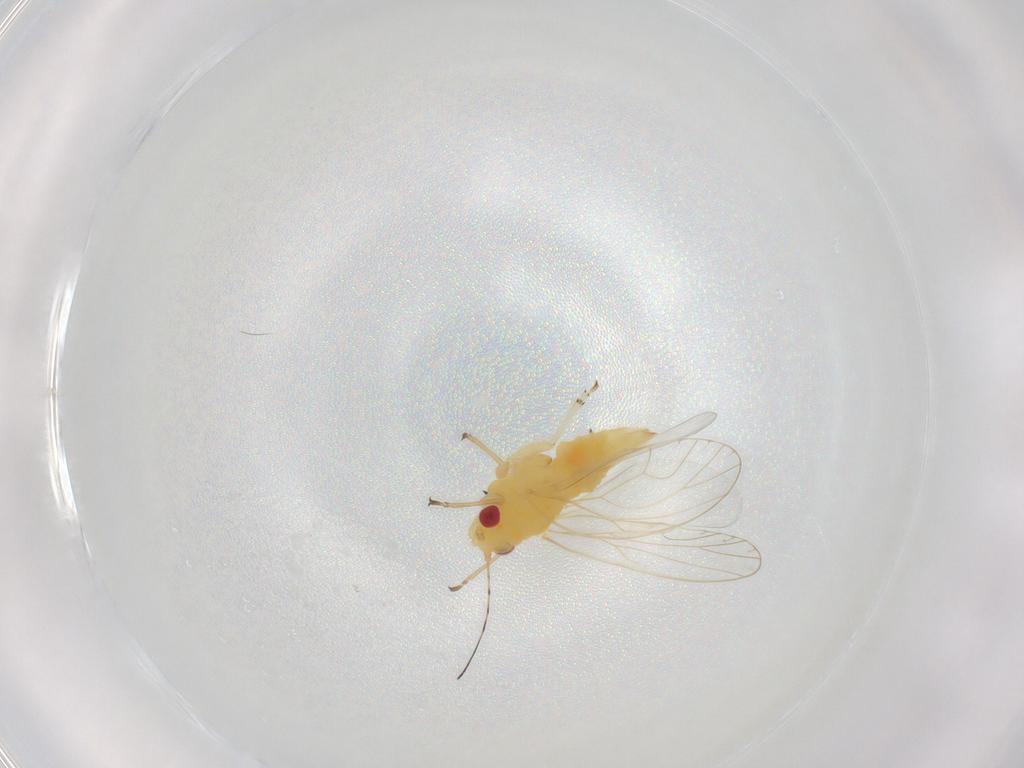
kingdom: Animalia
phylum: Arthropoda
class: Insecta
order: Hemiptera
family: Psyllidae
